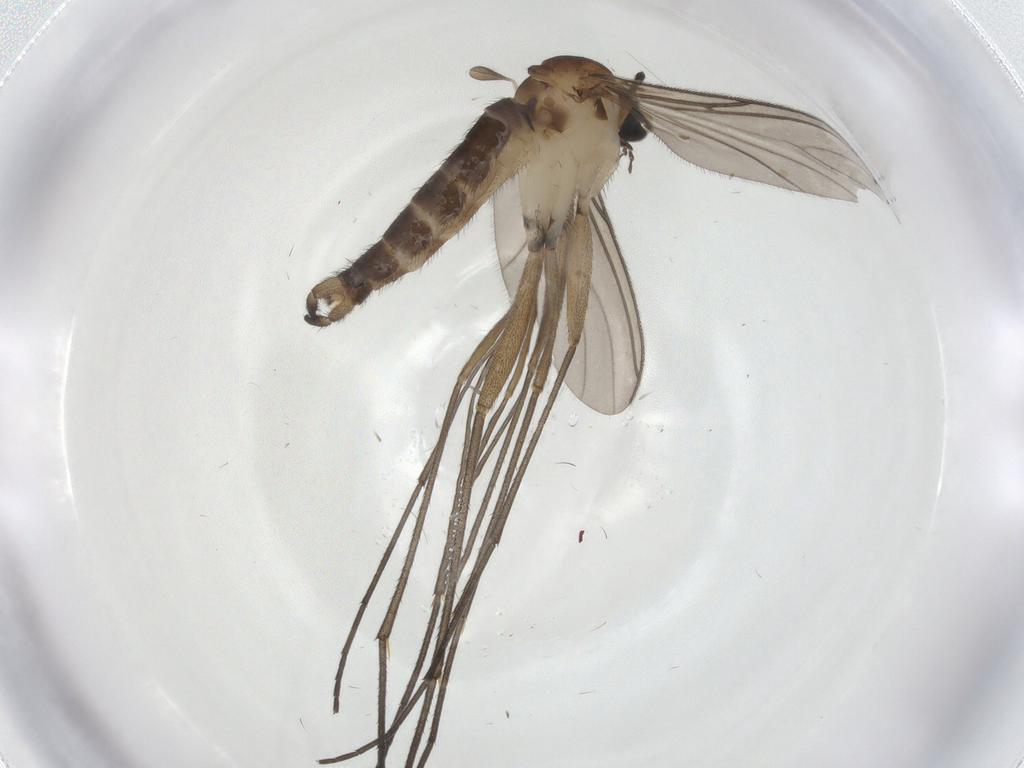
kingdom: Animalia
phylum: Arthropoda
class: Insecta
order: Diptera
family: Sciaridae
